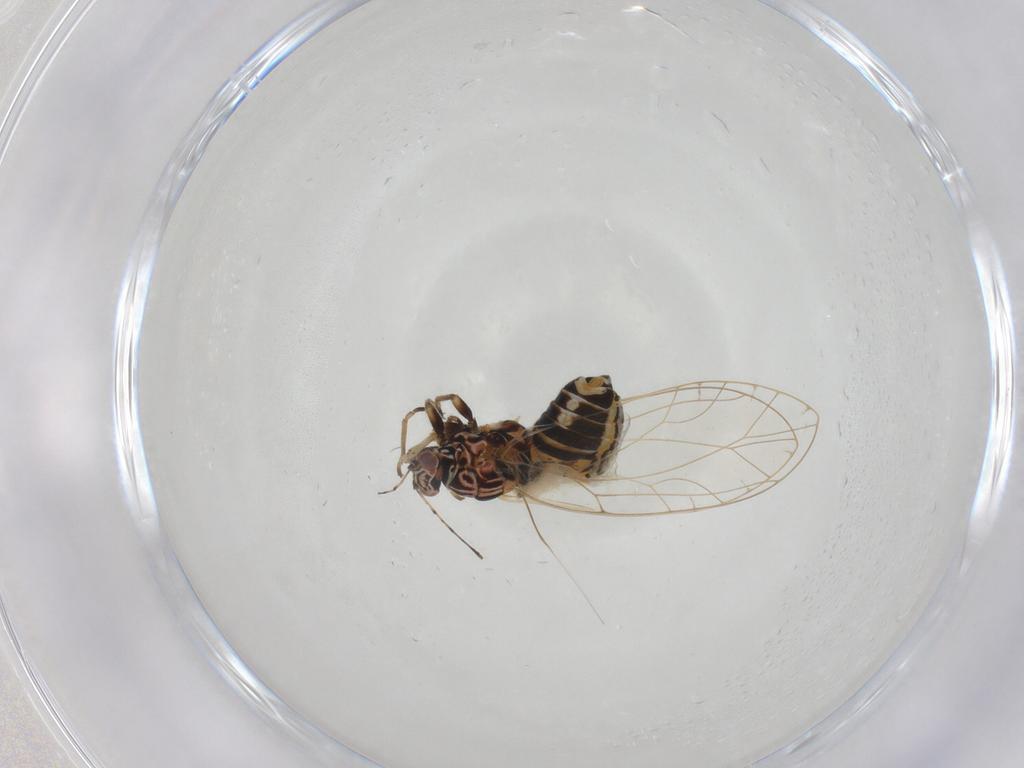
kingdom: Animalia
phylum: Arthropoda
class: Insecta
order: Hemiptera
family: Triozidae
